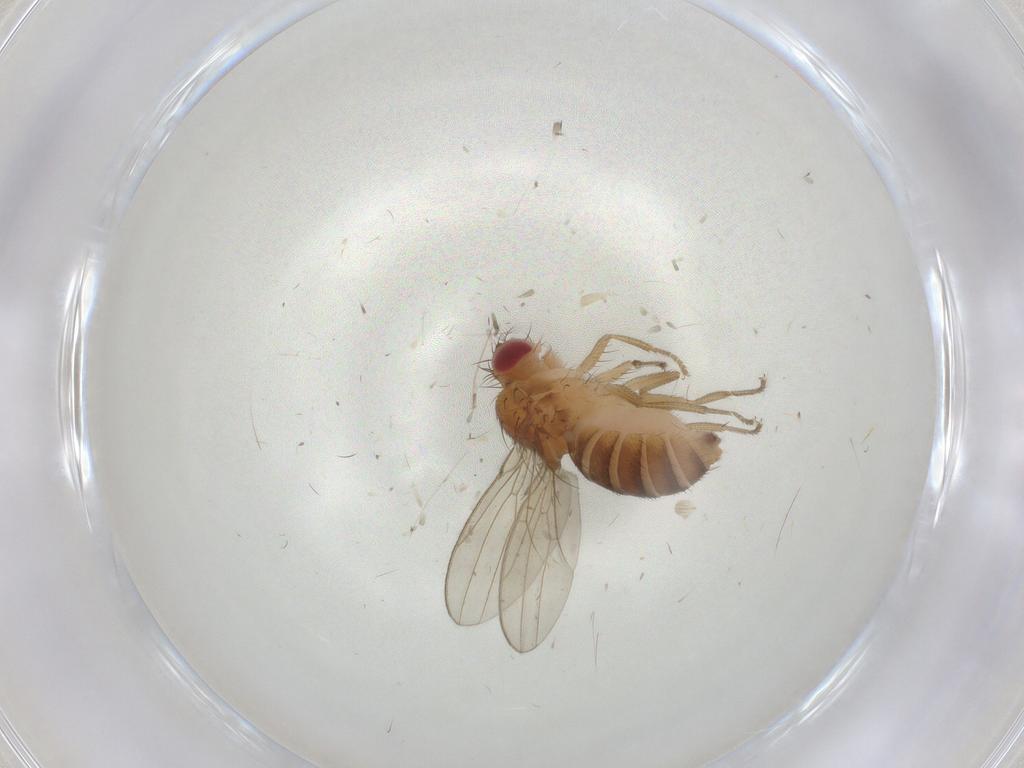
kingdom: Animalia
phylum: Arthropoda
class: Insecta
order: Diptera
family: Drosophilidae
